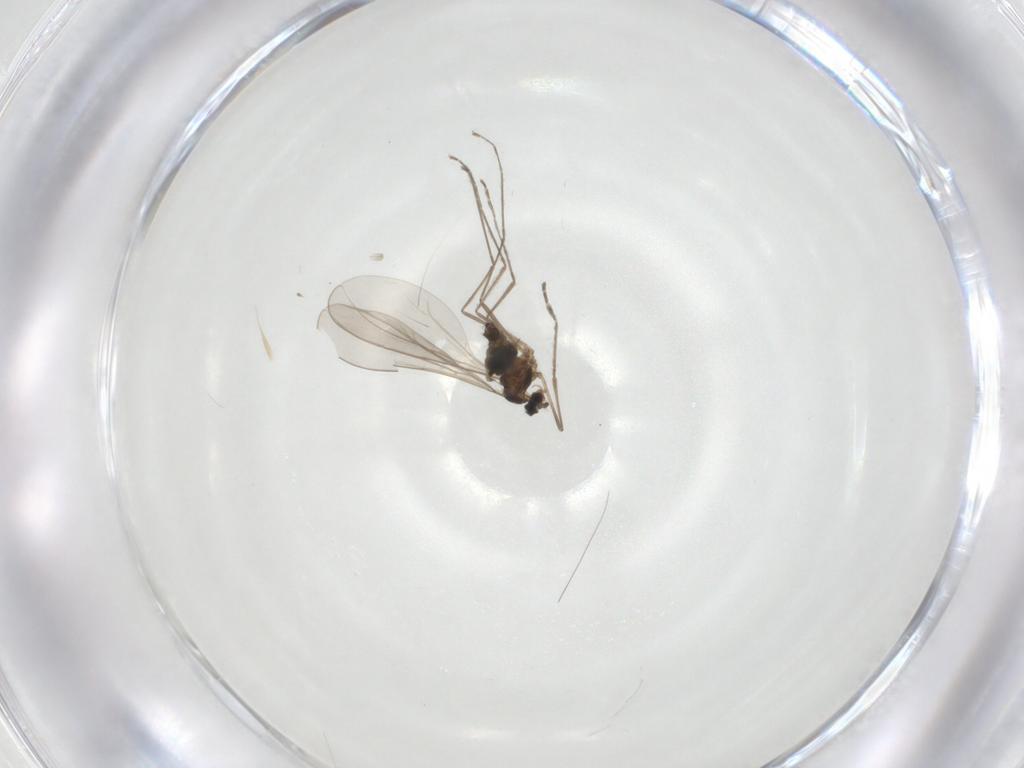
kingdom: Animalia
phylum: Arthropoda
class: Insecta
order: Diptera
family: Cecidomyiidae
